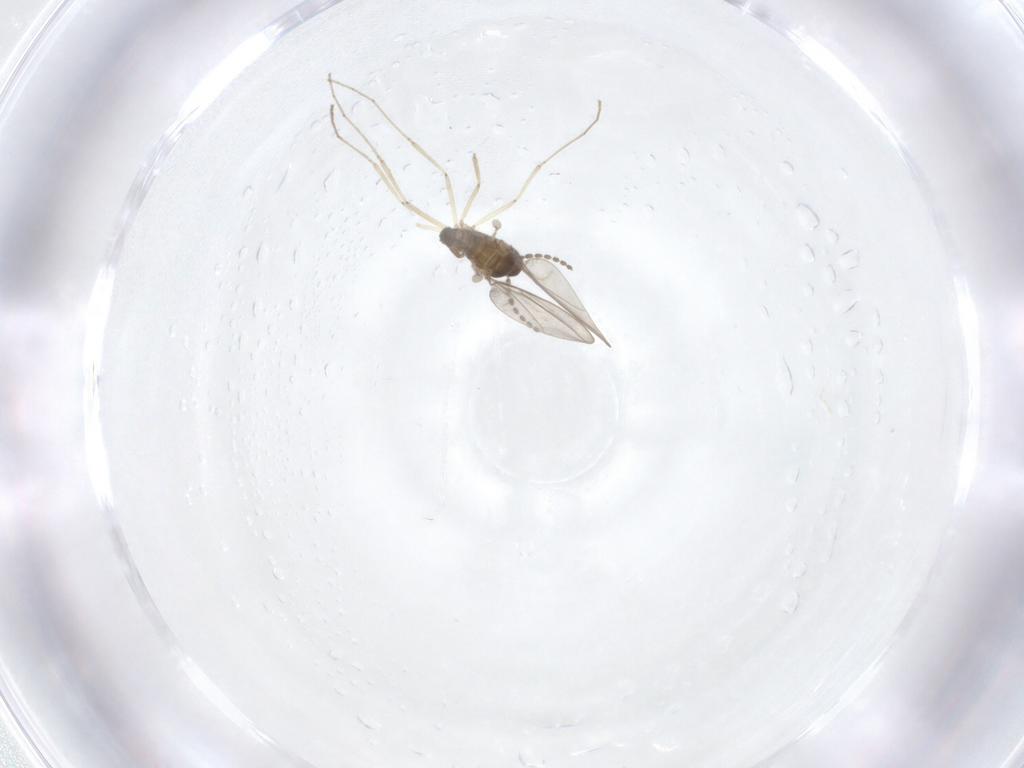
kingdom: Animalia
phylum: Arthropoda
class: Insecta
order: Diptera
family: Cecidomyiidae
